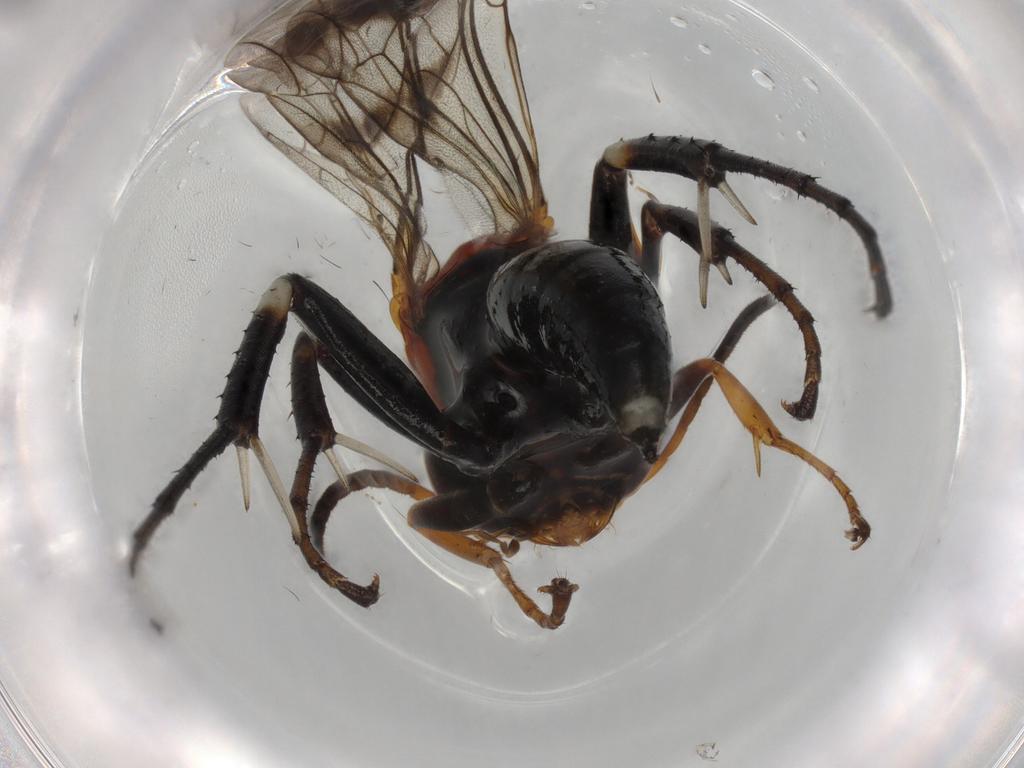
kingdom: Animalia
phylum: Arthropoda
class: Insecta
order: Hymenoptera
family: Pompilidae
